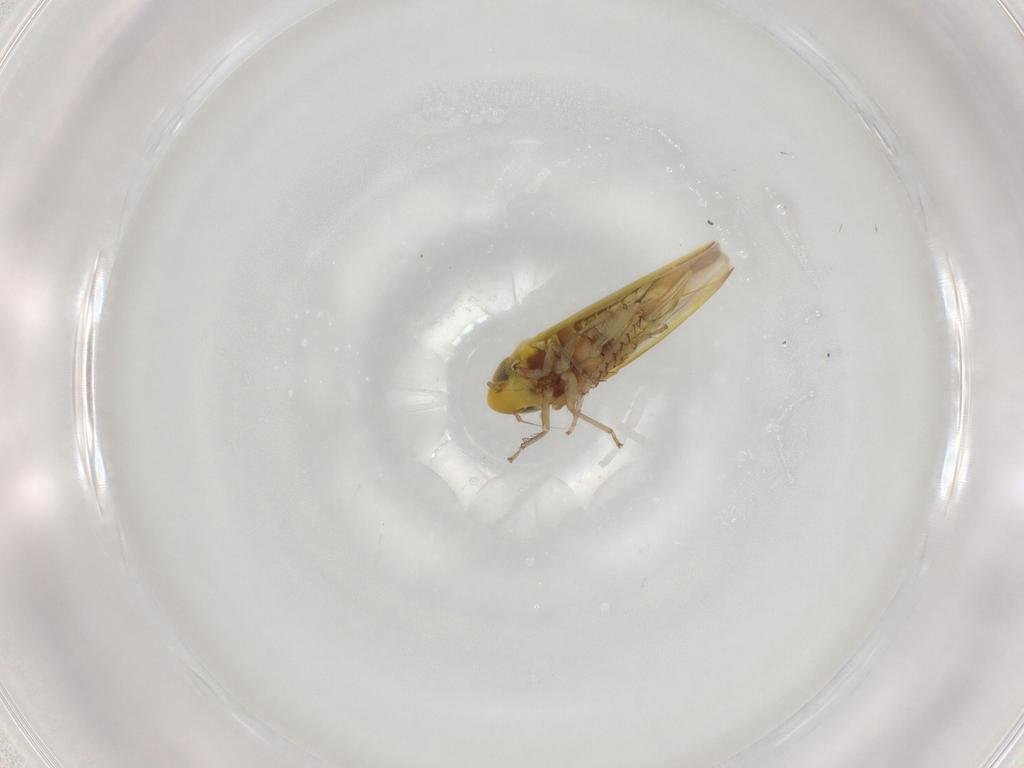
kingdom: Animalia
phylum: Arthropoda
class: Insecta
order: Hemiptera
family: Cicadellidae
